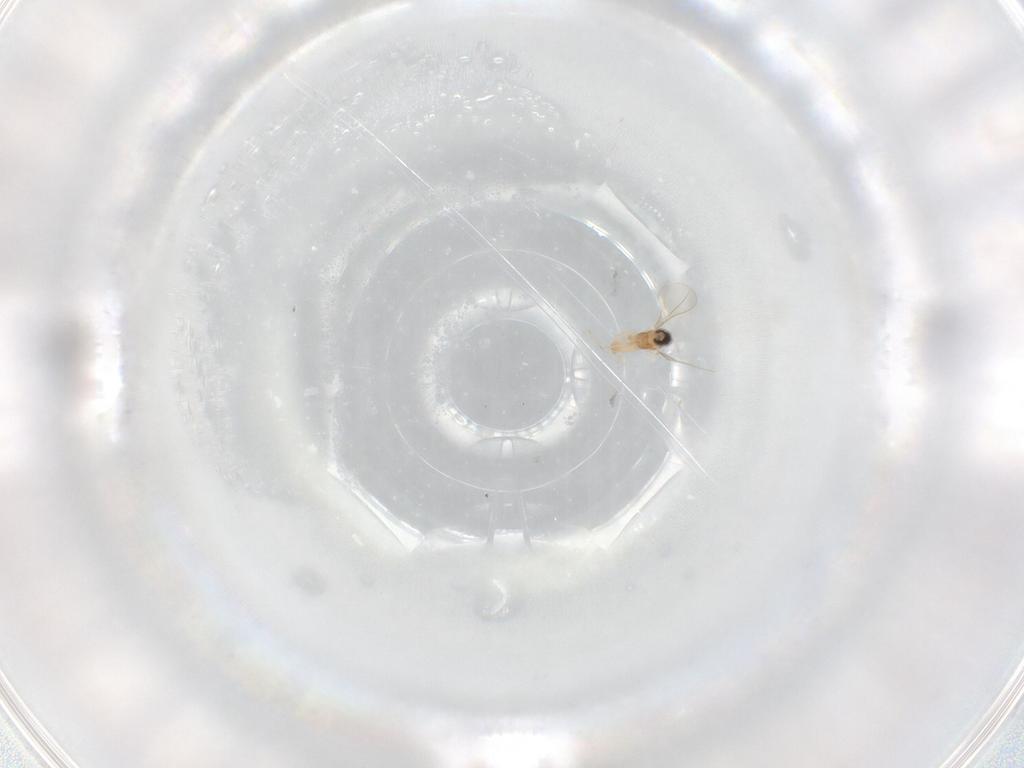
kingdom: Animalia
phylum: Arthropoda
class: Insecta
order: Diptera
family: Cecidomyiidae
